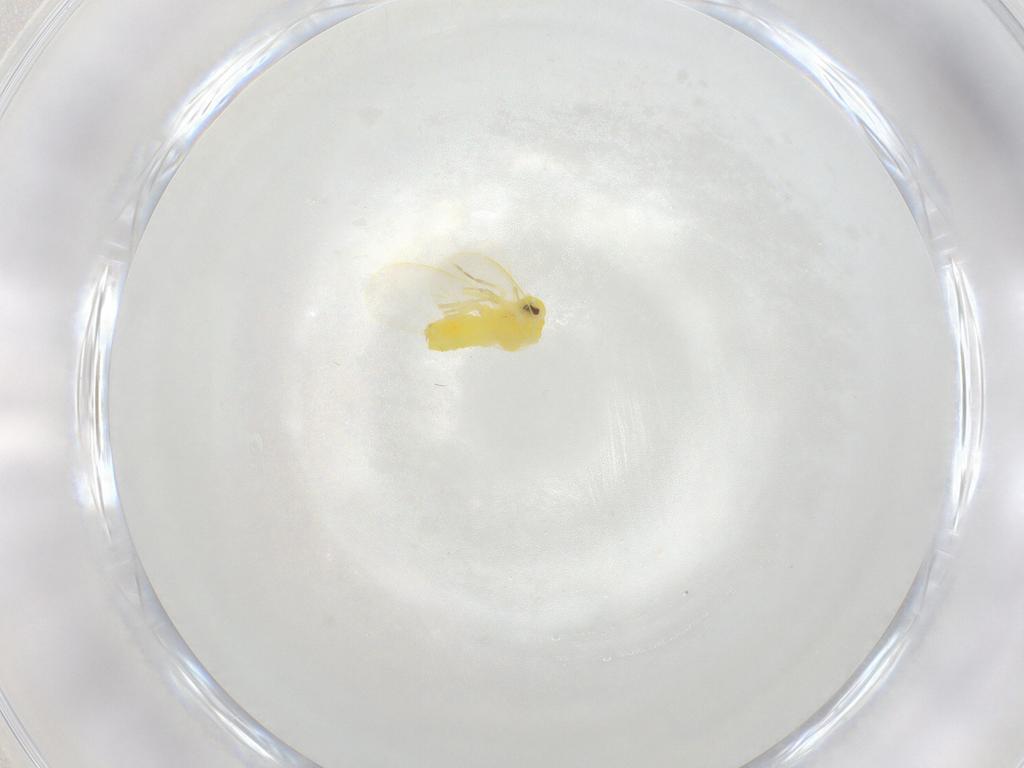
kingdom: Animalia
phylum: Arthropoda
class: Insecta
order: Hemiptera
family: Aleyrodidae
